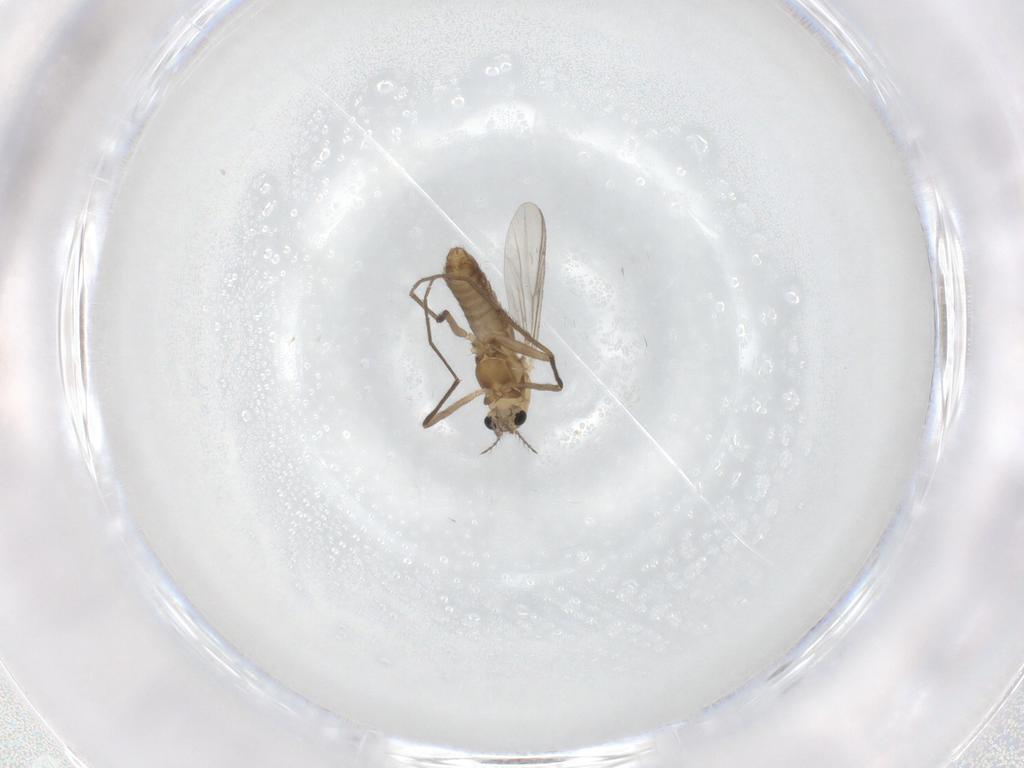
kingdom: Animalia
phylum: Arthropoda
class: Insecta
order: Diptera
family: Chironomidae
